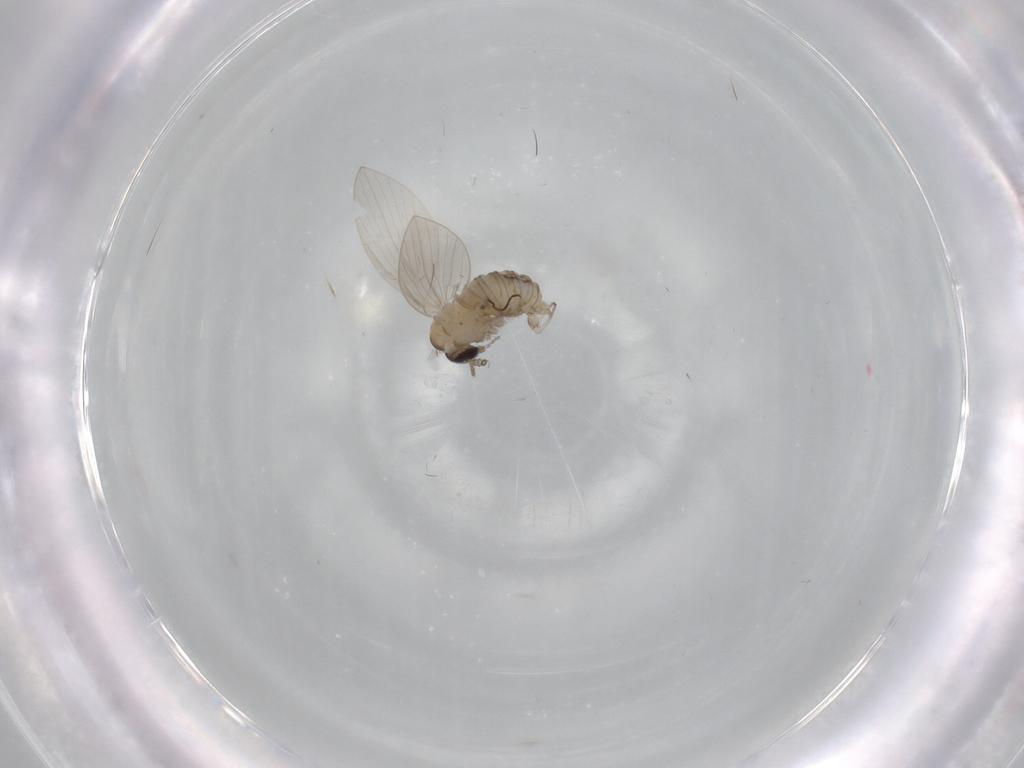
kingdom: Animalia
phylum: Arthropoda
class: Insecta
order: Diptera
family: Psychodidae
